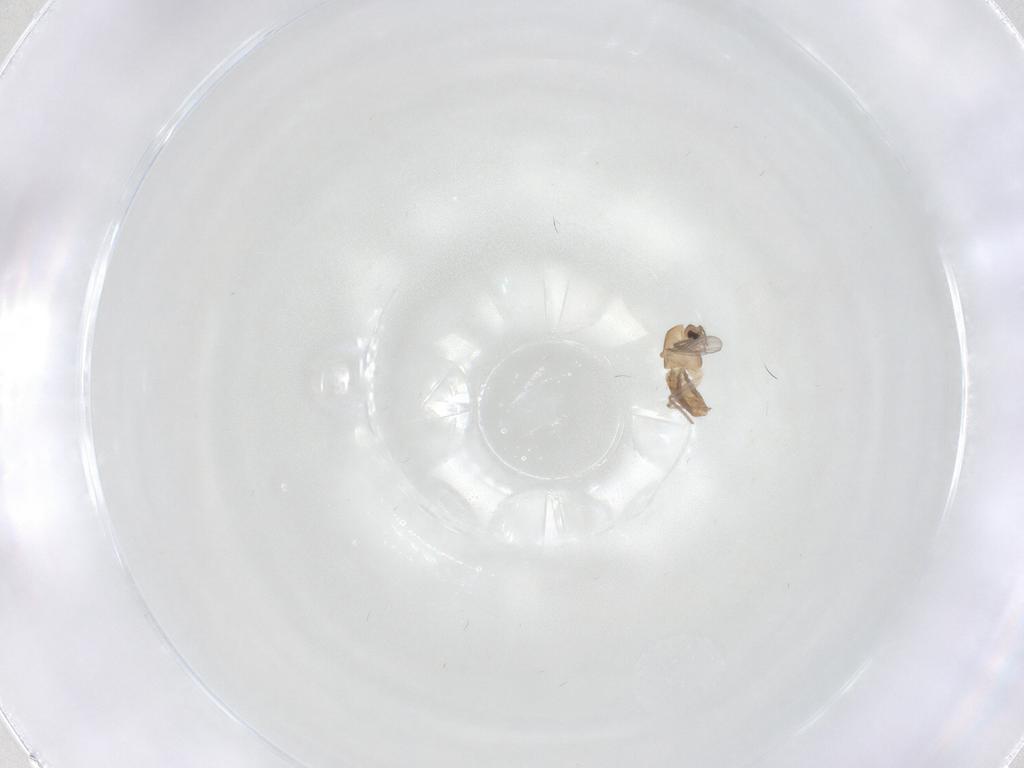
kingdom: Animalia
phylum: Arthropoda
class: Insecta
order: Diptera
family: Chironomidae
